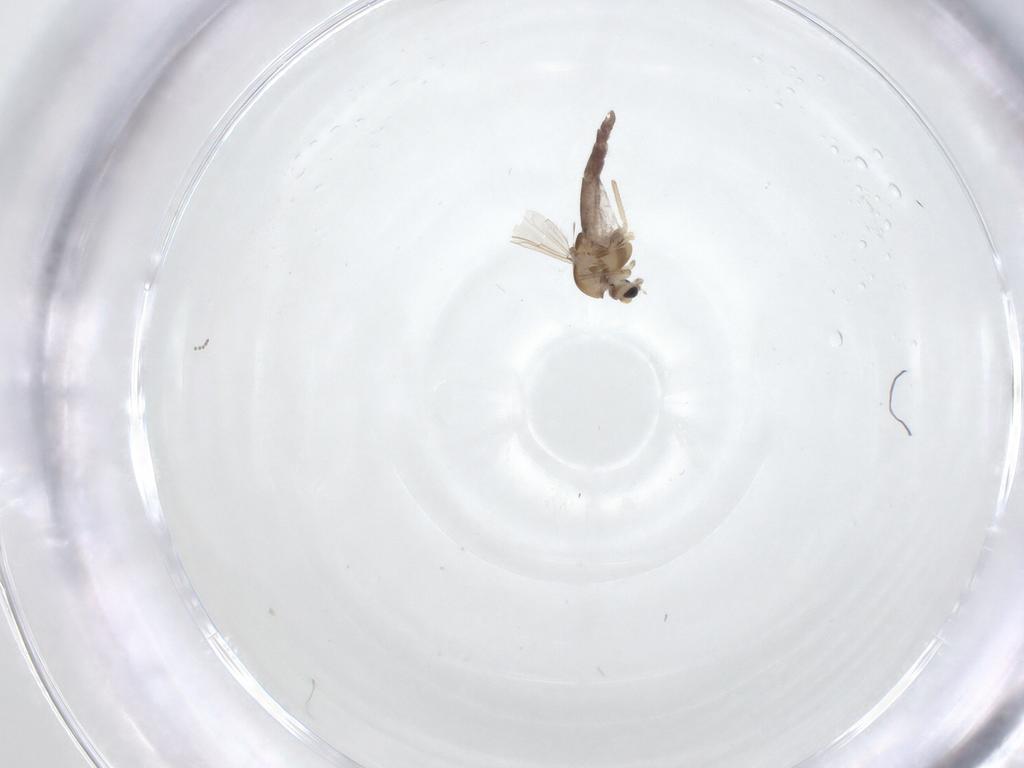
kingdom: Animalia
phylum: Arthropoda
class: Insecta
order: Diptera
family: Chironomidae
